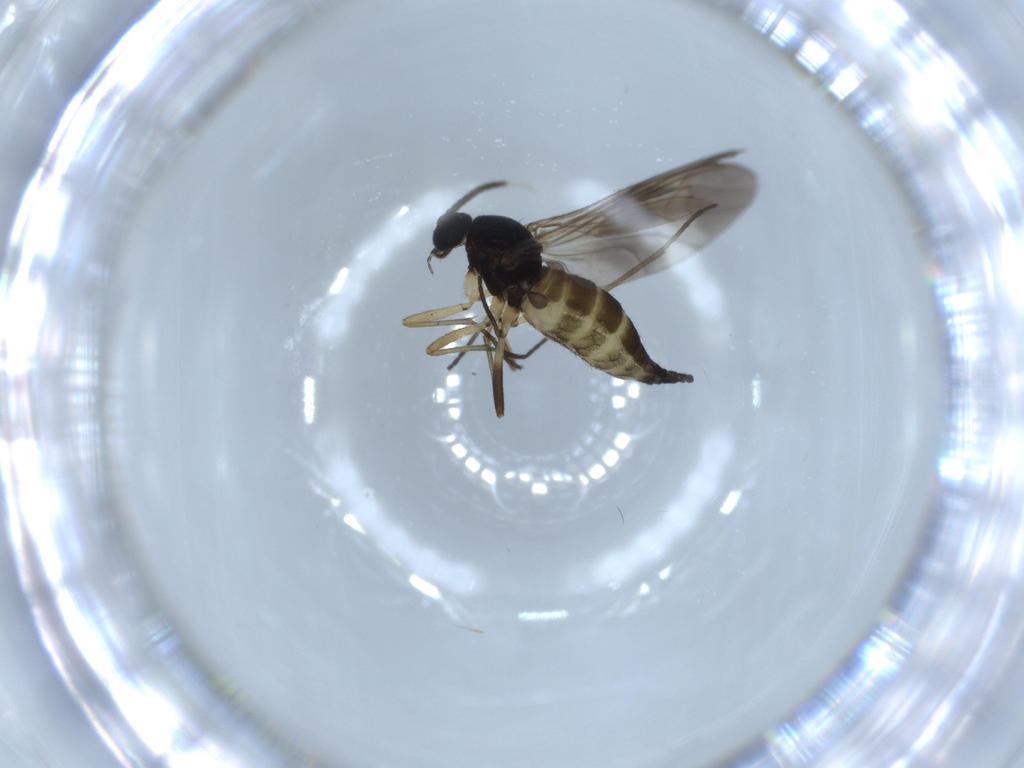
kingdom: Animalia
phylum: Arthropoda
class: Insecta
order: Diptera
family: Sciaridae
